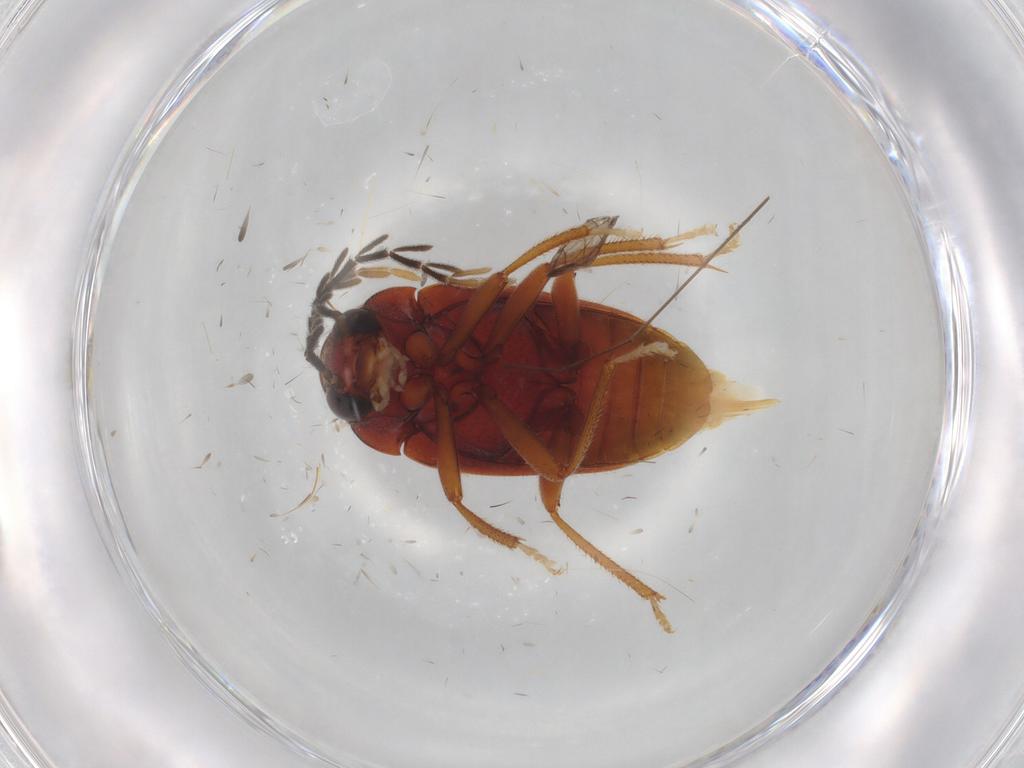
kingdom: Animalia
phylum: Arthropoda
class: Insecta
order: Coleoptera
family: Ptilodactylidae
